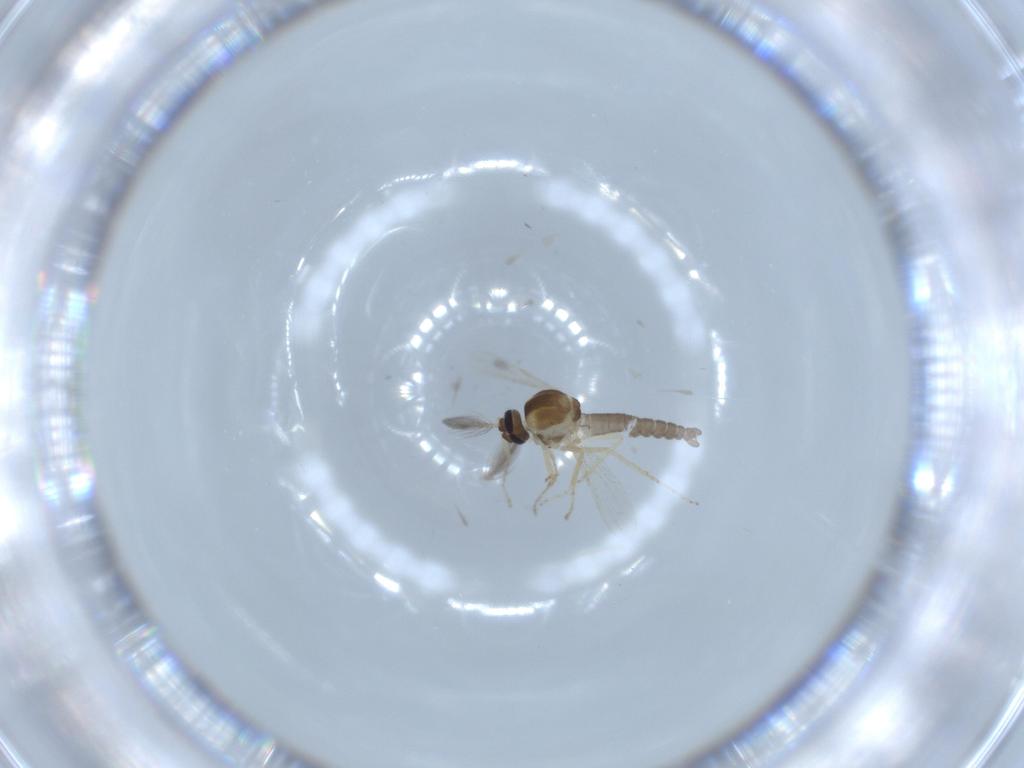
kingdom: Animalia
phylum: Arthropoda
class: Insecta
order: Diptera
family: Ceratopogonidae
